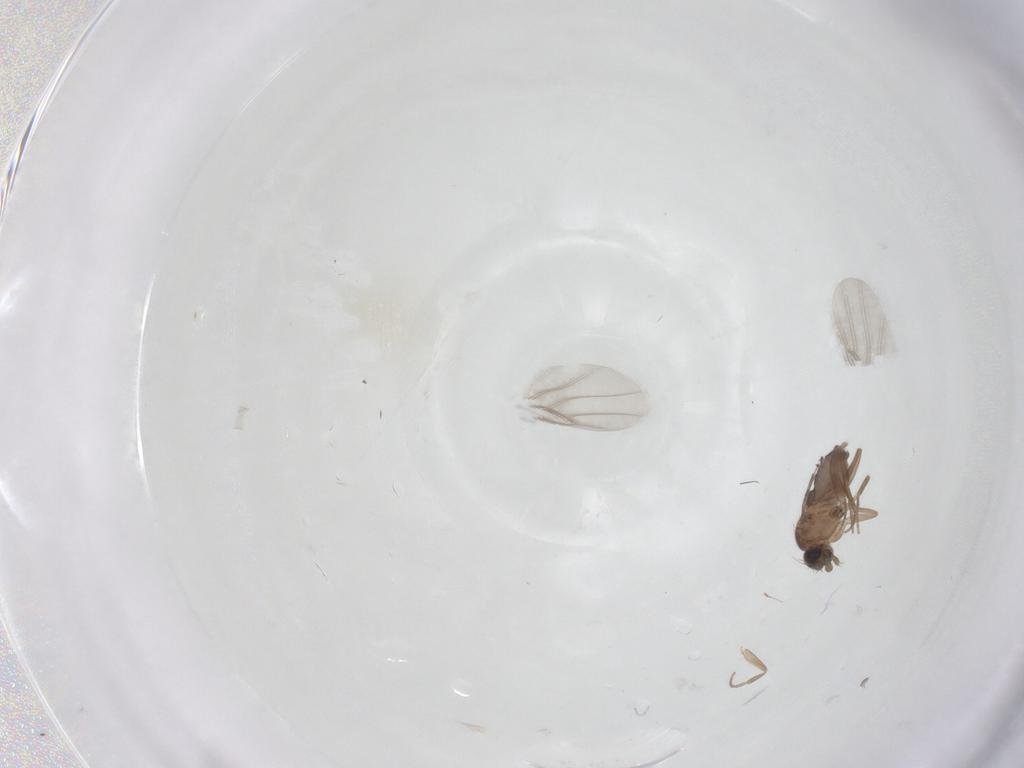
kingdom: Animalia
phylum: Arthropoda
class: Insecta
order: Diptera
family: Phoridae
